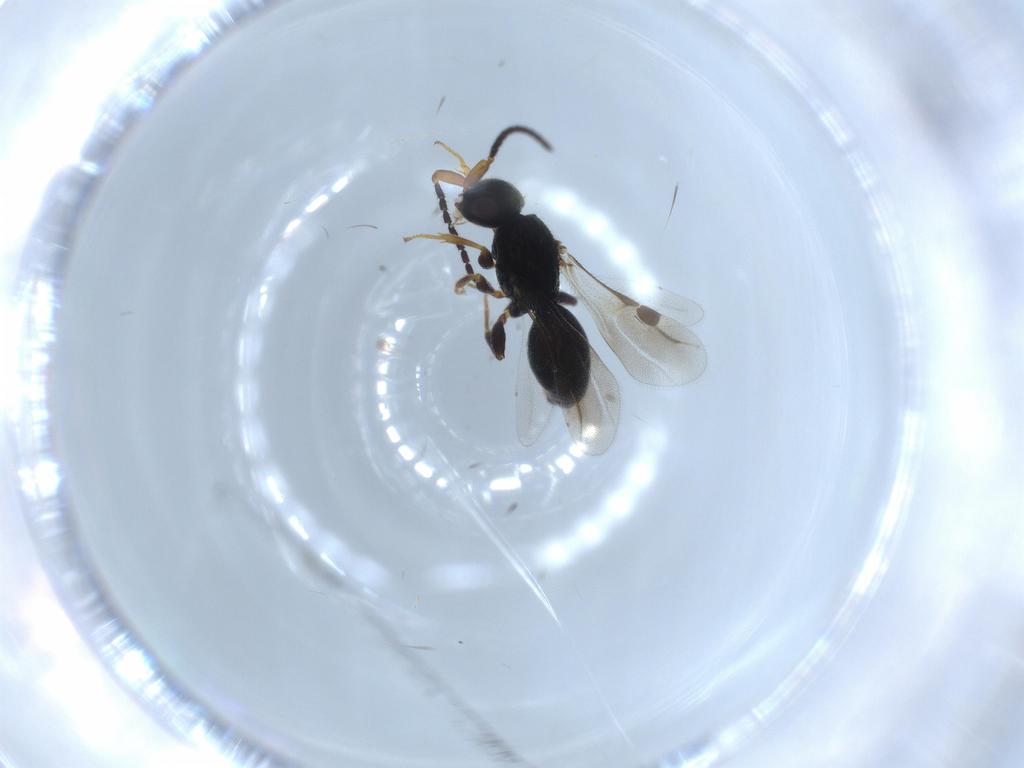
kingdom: Animalia
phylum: Arthropoda
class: Insecta
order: Hymenoptera
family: Megaspilidae
